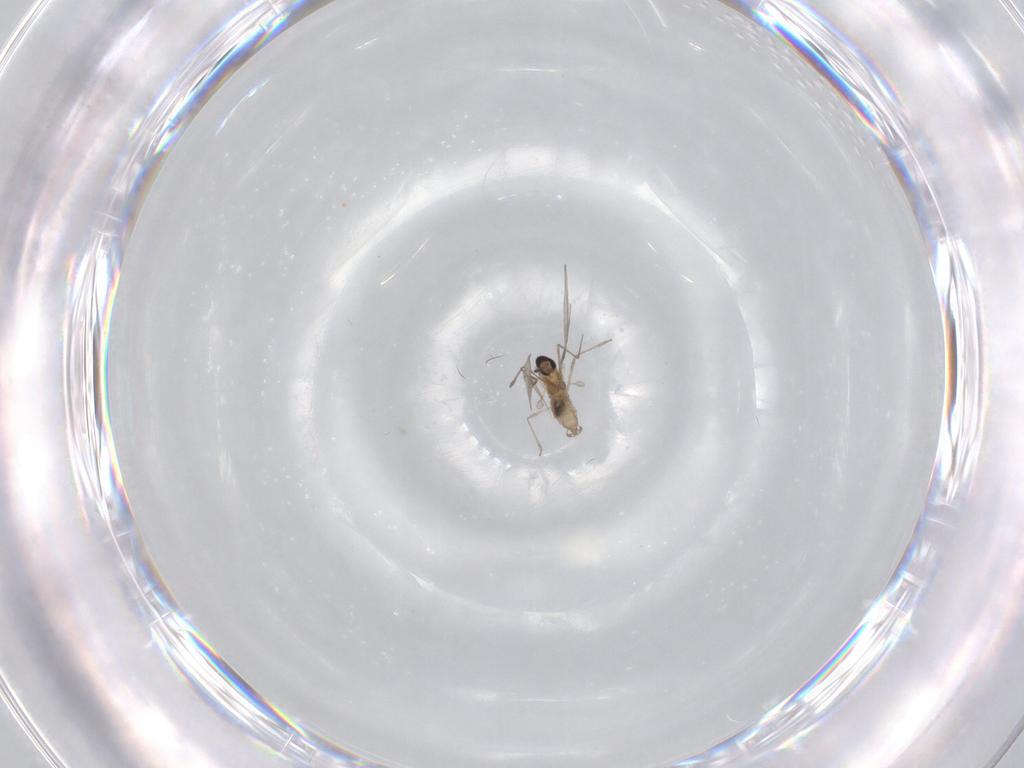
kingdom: Animalia
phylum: Arthropoda
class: Insecta
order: Diptera
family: Cecidomyiidae
